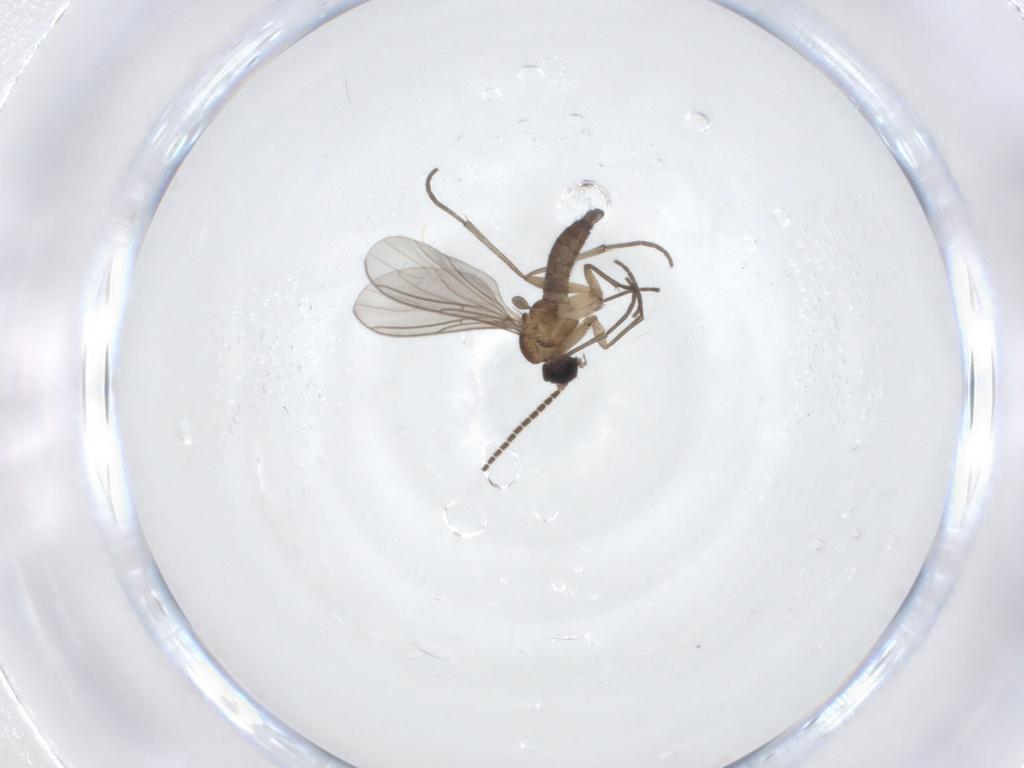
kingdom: Animalia
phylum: Arthropoda
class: Insecta
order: Diptera
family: Sciaridae
